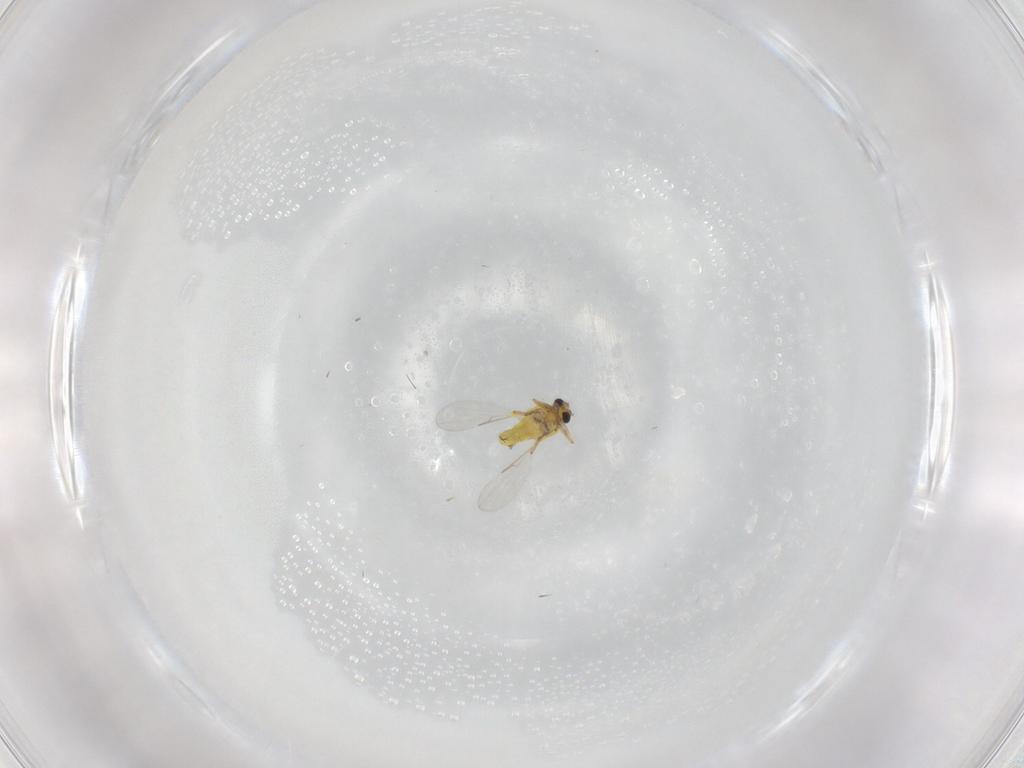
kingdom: Animalia
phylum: Arthropoda
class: Insecta
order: Diptera
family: Ceratopogonidae
